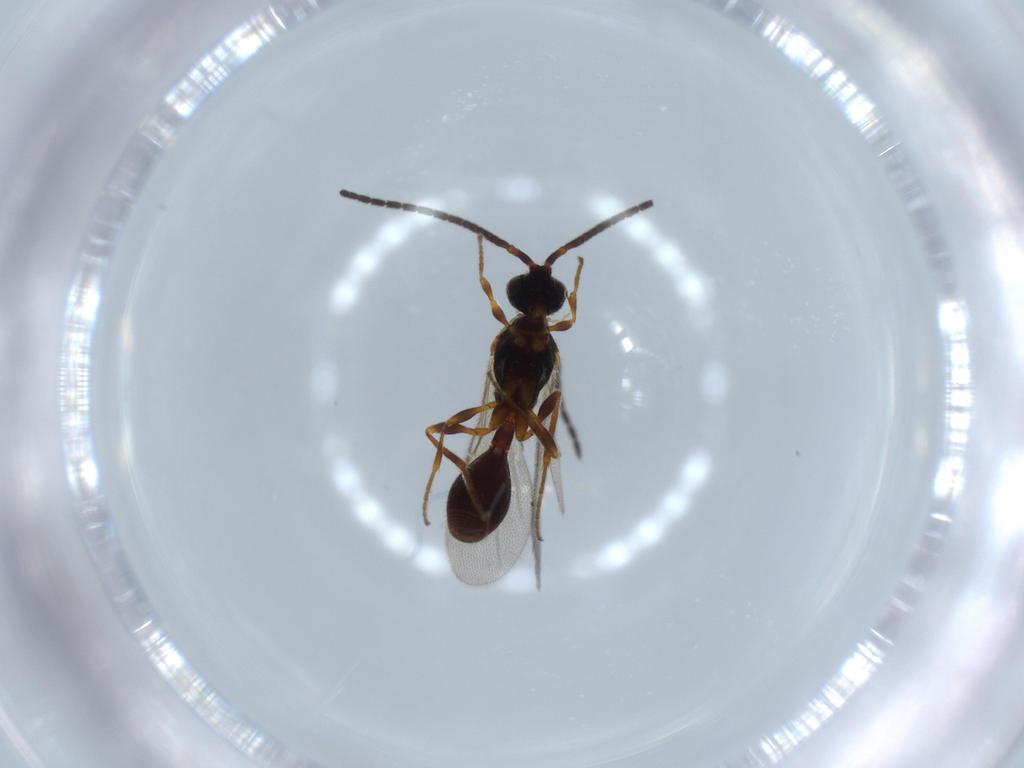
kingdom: Animalia
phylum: Arthropoda
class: Insecta
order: Hymenoptera
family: Diapriidae
